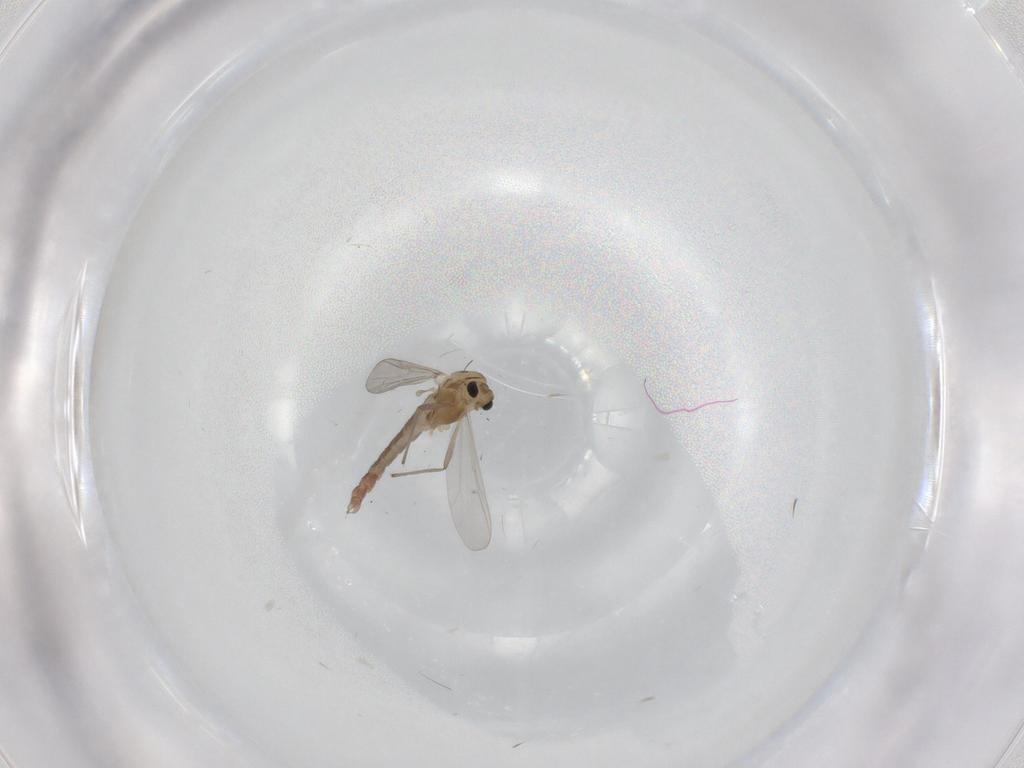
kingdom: Animalia
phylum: Arthropoda
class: Insecta
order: Diptera
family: Chironomidae
